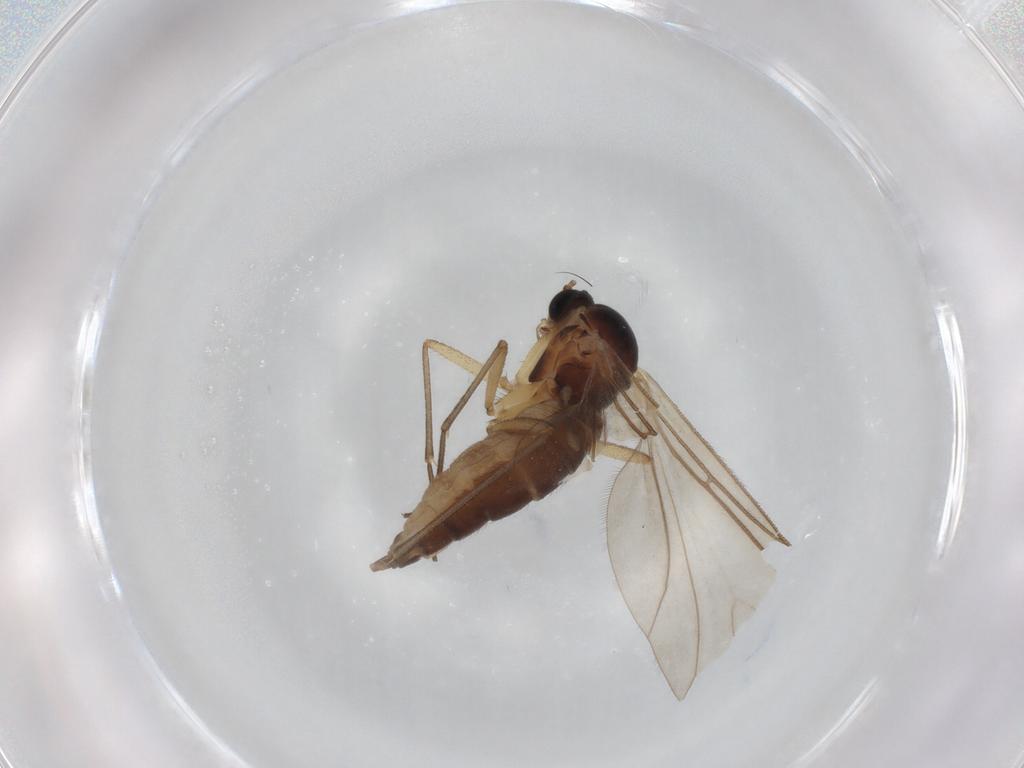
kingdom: Animalia
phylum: Arthropoda
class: Insecta
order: Diptera
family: Sciaridae
